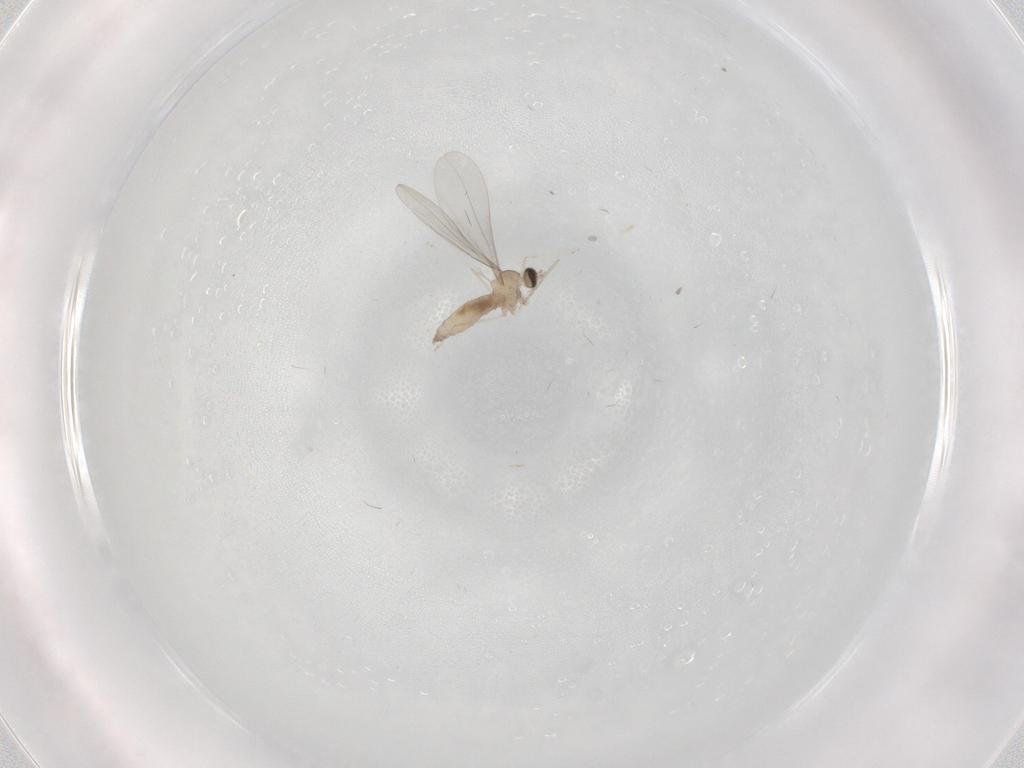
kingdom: Animalia
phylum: Arthropoda
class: Insecta
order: Diptera
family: Cecidomyiidae
